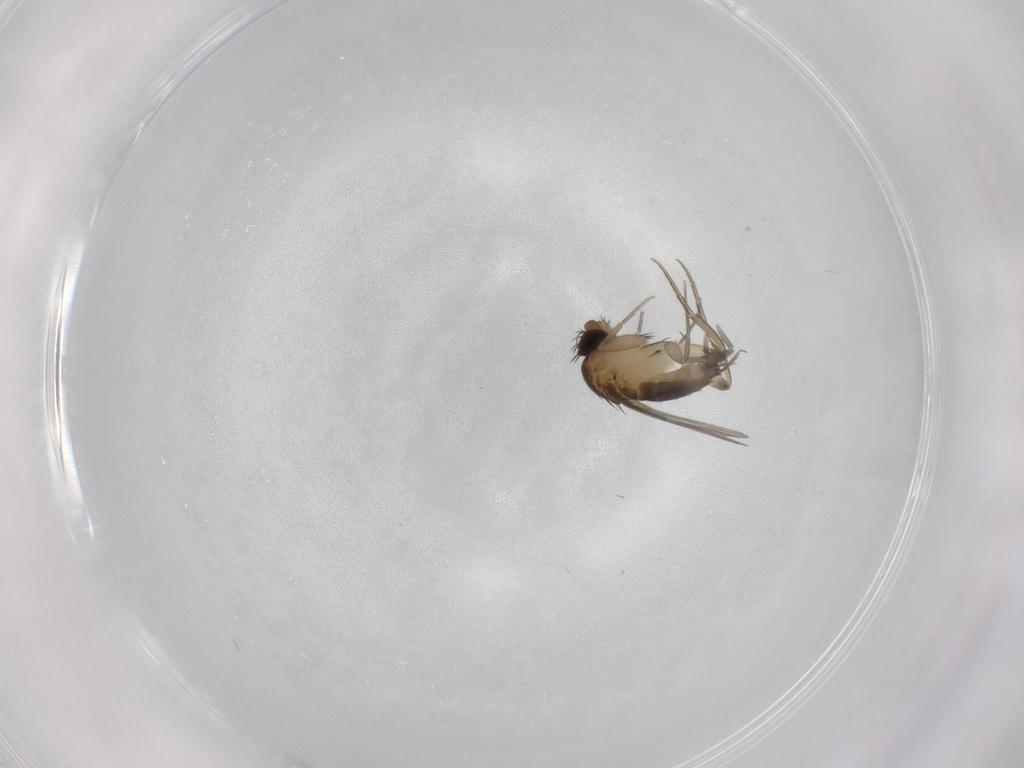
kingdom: Animalia
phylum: Arthropoda
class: Insecta
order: Diptera
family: Phoridae
